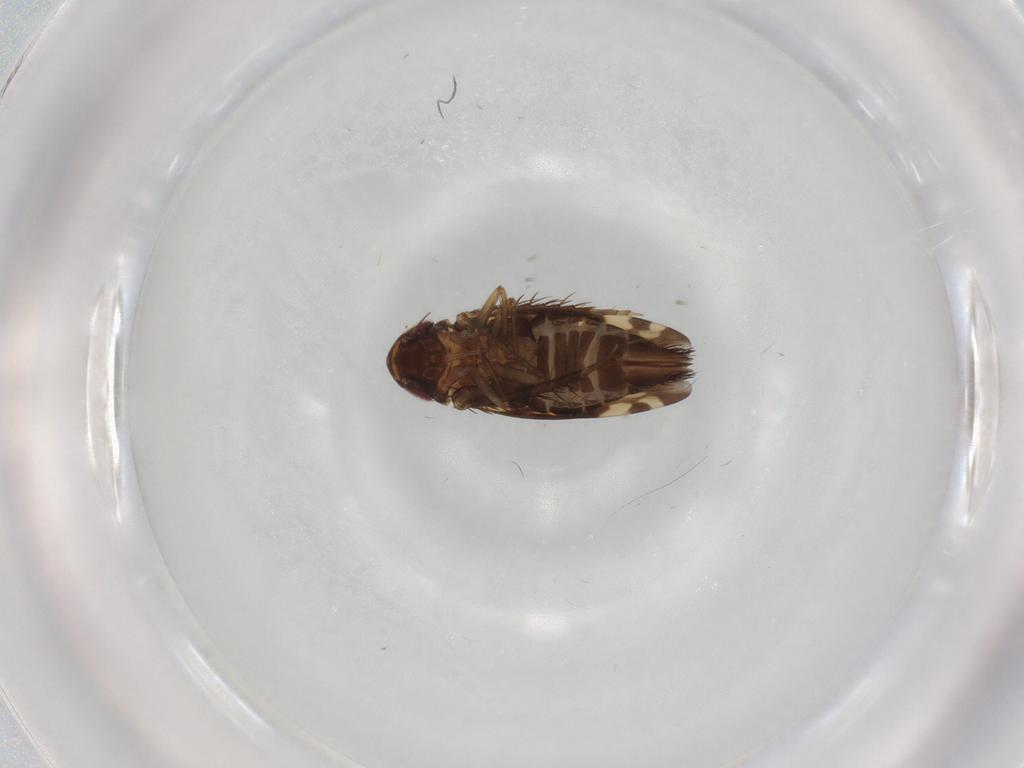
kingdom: Animalia
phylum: Arthropoda
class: Insecta
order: Hemiptera
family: Cicadellidae
